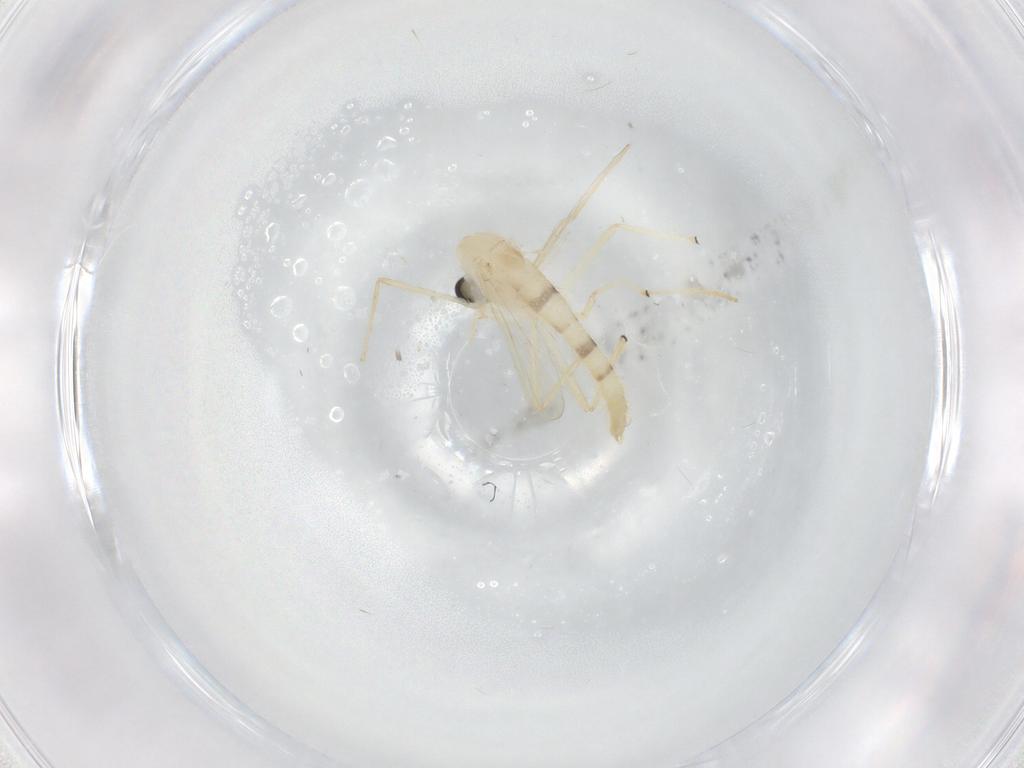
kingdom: Animalia
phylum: Arthropoda
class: Insecta
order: Diptera
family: Chironomidae
